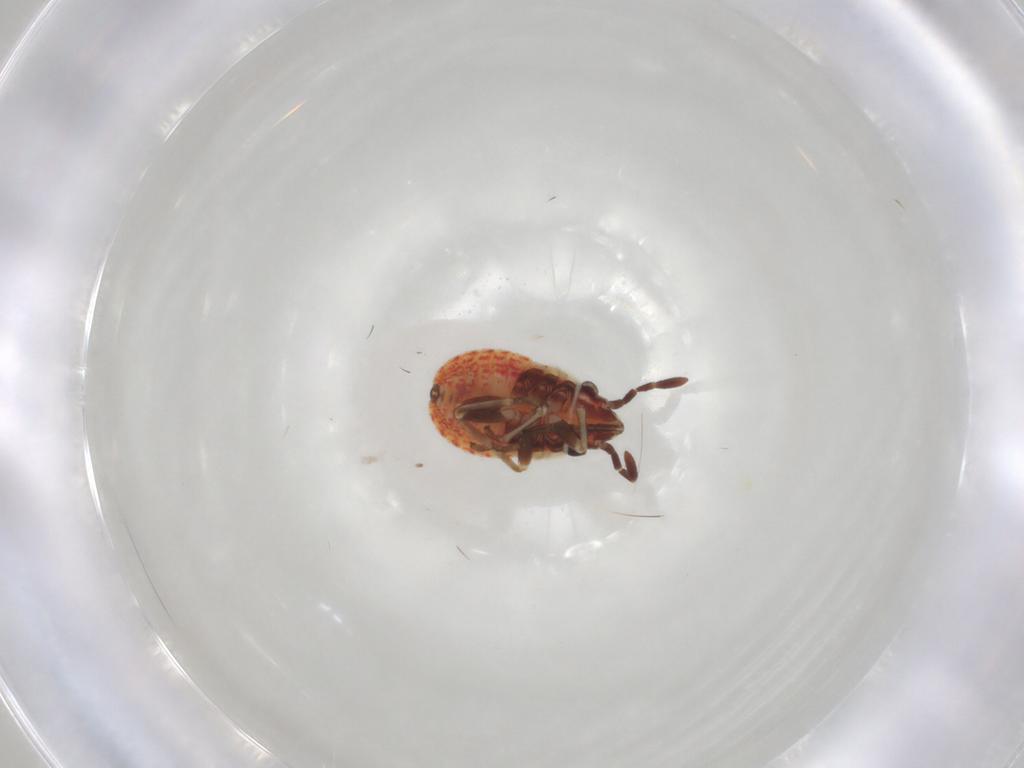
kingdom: Animalia
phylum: Arthropoda
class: Insecta
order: Hemiptera
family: Lygaeidae
